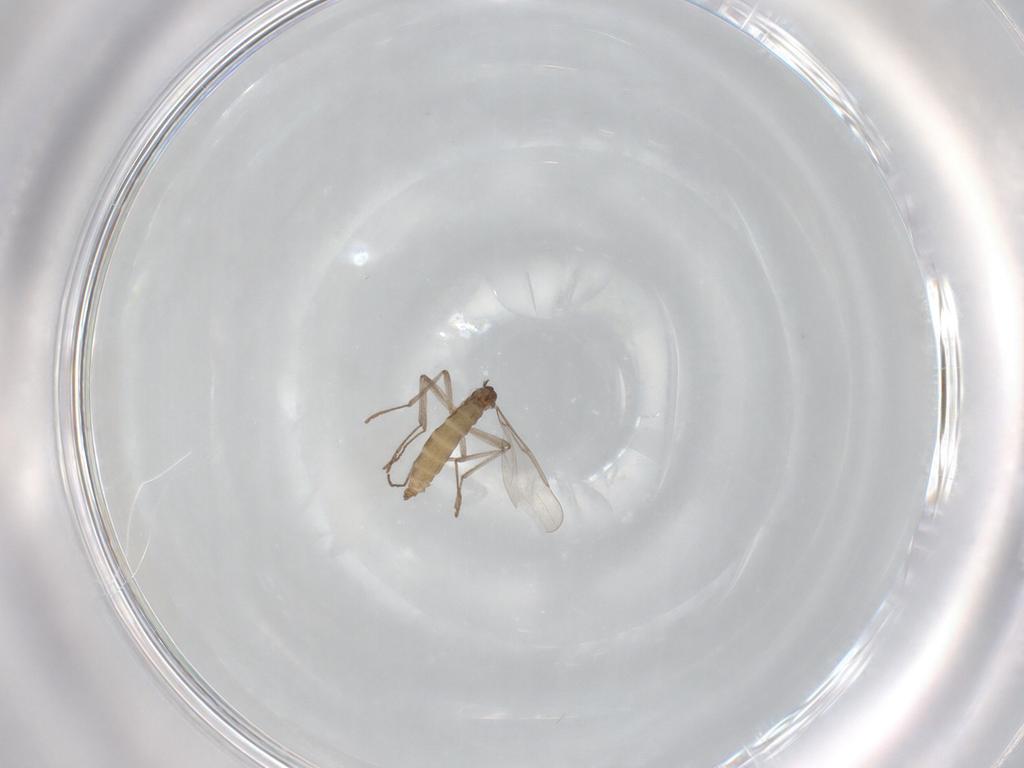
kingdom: Animalia
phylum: Arthropoda
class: Insecta
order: Diptera
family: Cecidomyiidae
